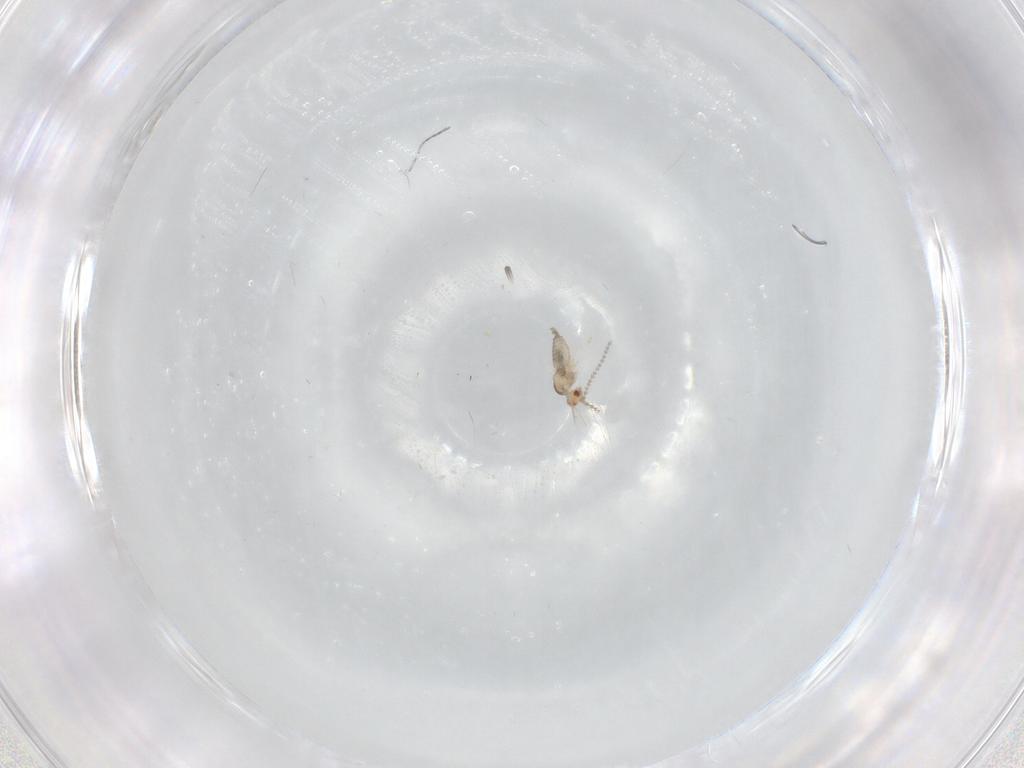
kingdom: Animalia
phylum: Arthropoda
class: Insecta
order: Diptera
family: Cecidomyiidae
